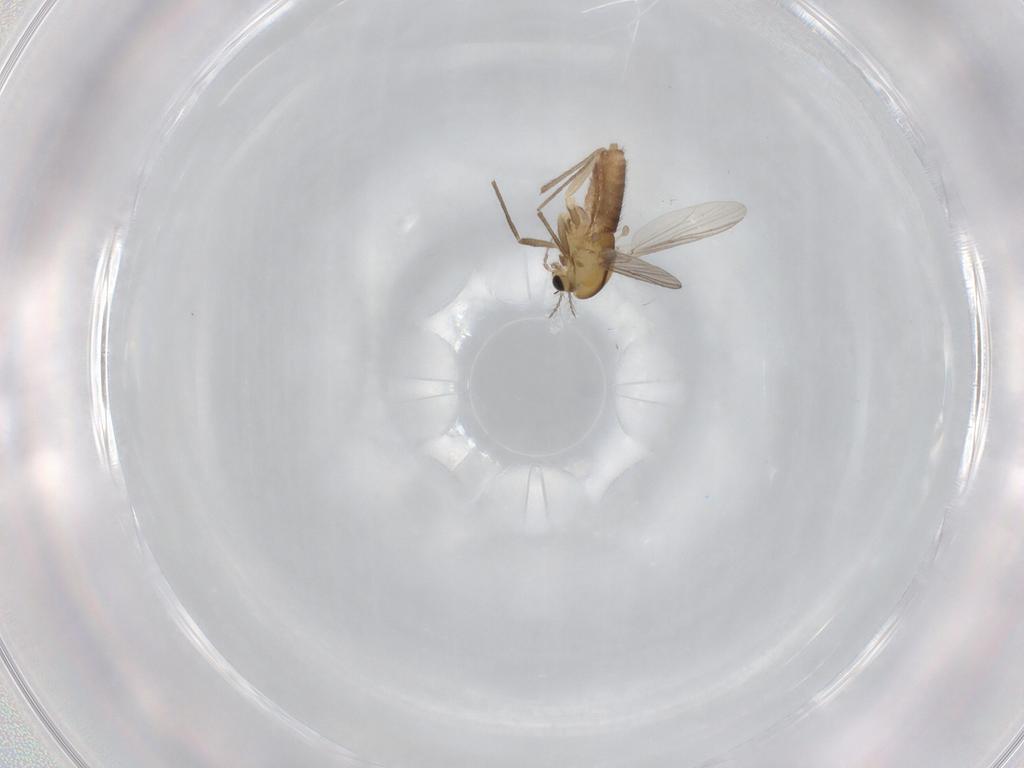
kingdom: Animalia
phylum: Arthropoda
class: Insecta
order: Diptera
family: Chironomidae
